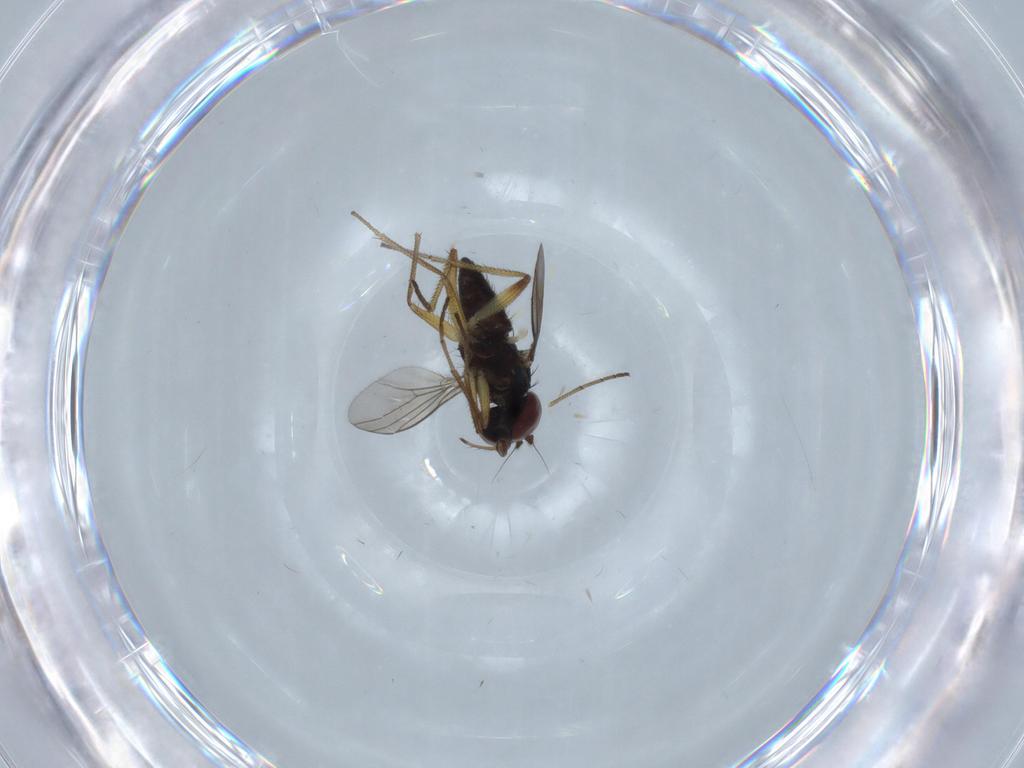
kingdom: Animalia
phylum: Arthropoda
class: Insecta
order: Diptera
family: Dolichopodidae
